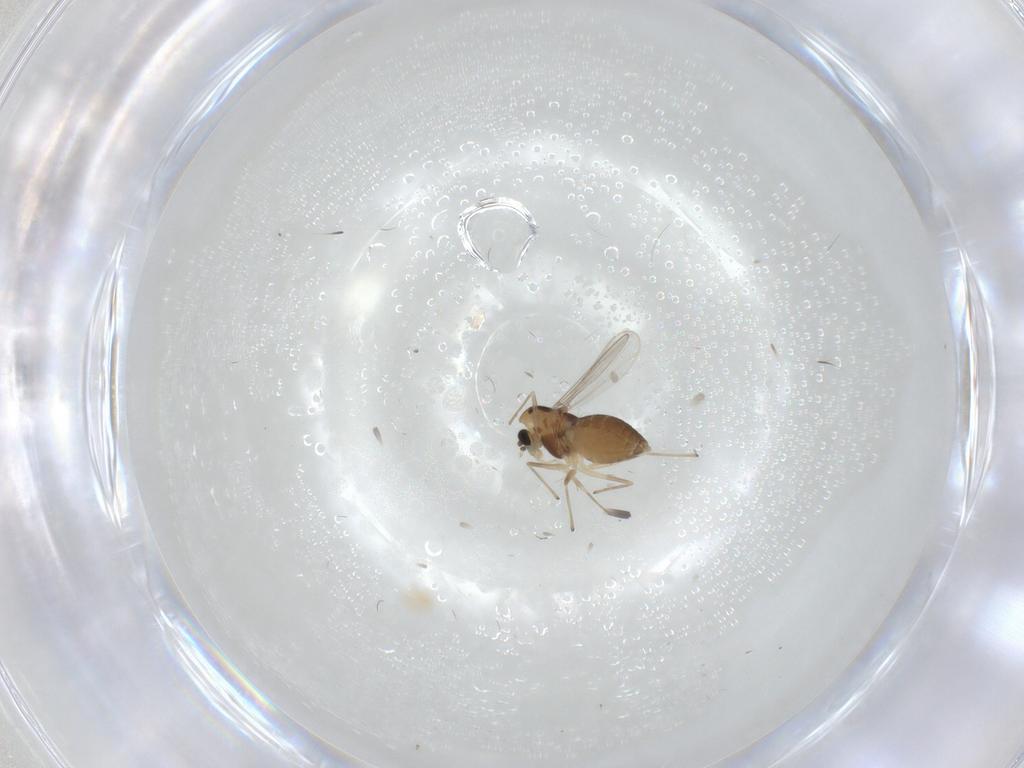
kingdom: Animalia
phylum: Arthropoda
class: Insecta
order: Diptera
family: Chironomidae
